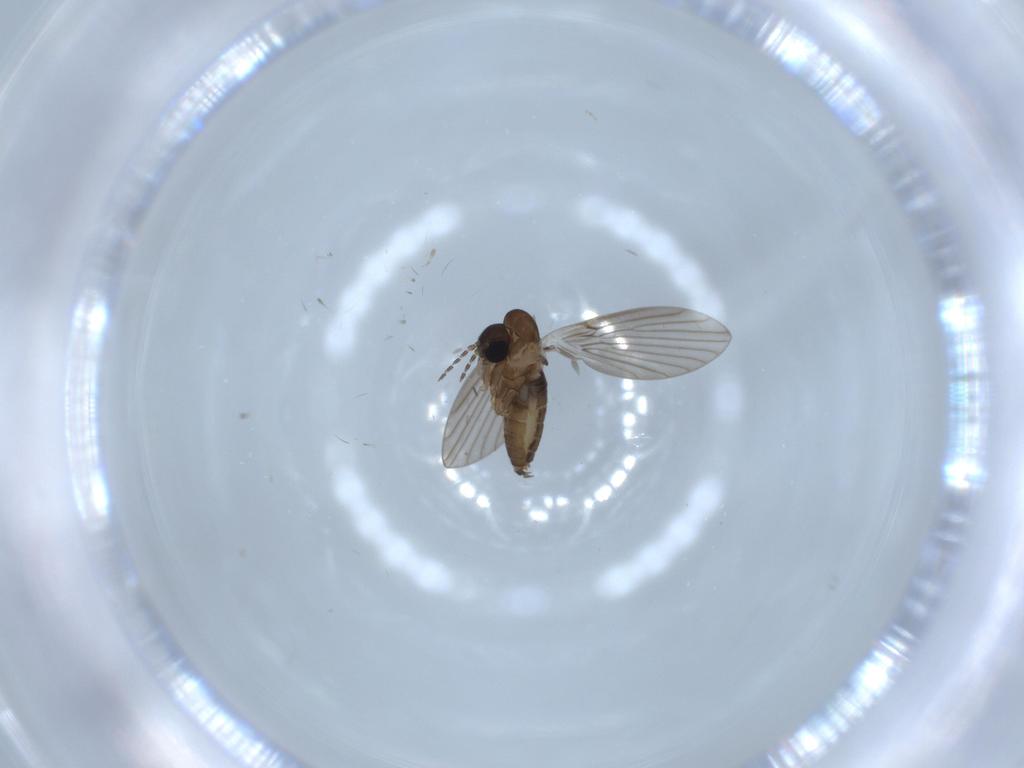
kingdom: Animalia
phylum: Arthropoda
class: Insecta
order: Diptera
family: Psychodidae
